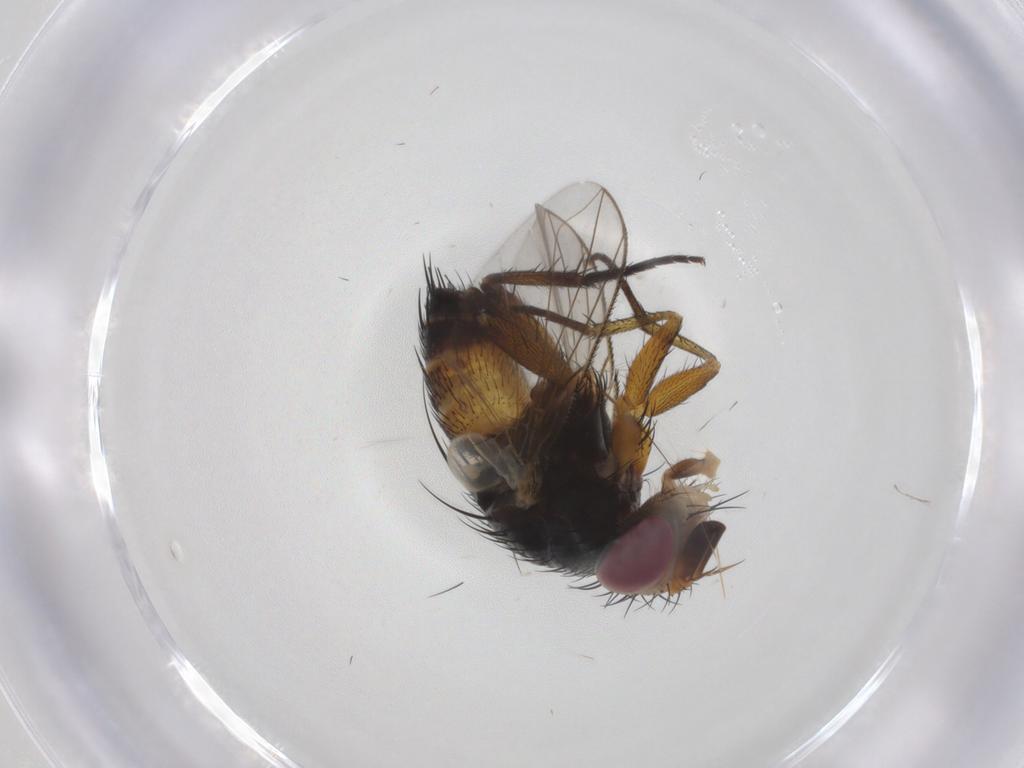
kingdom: Animalia
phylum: Arthropoda
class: Insecta
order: Diptera
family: Tachinidae
